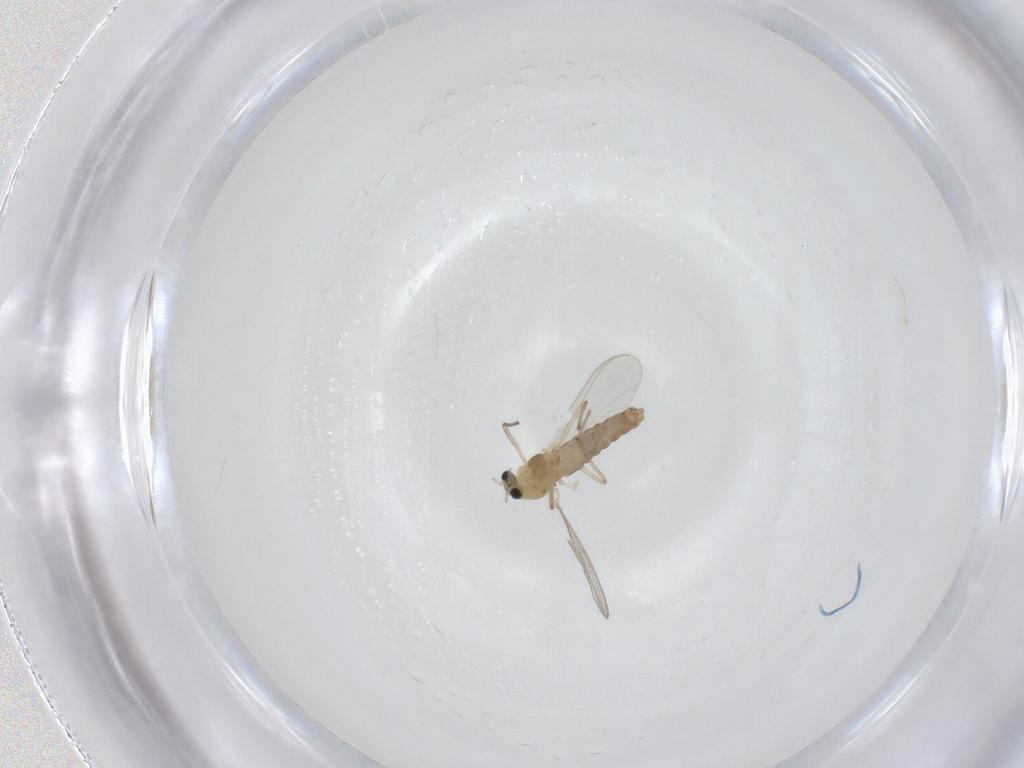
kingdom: Animalia
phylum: Arthropoda
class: Insecta
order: Diptera
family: Chironomidae
